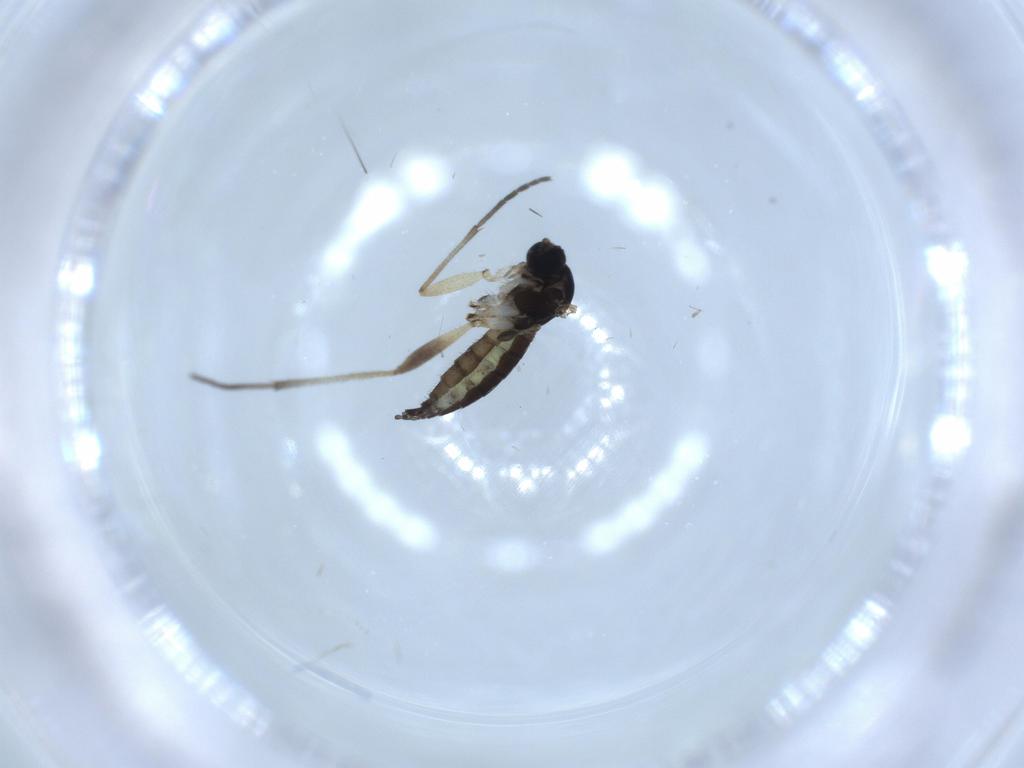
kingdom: Animalia
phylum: Arthropoda
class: Insecta
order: Diptera
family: Sciaridae
